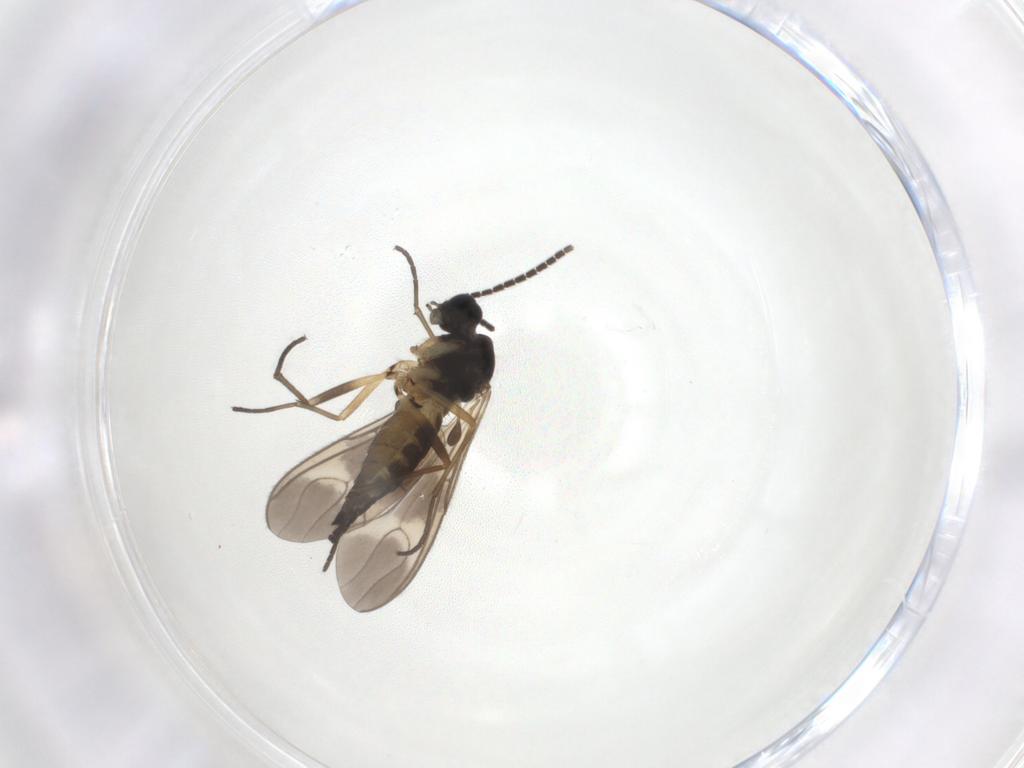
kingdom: Animalia
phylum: Arthropoda
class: Insecta
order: Diptera
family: Sciaridae
